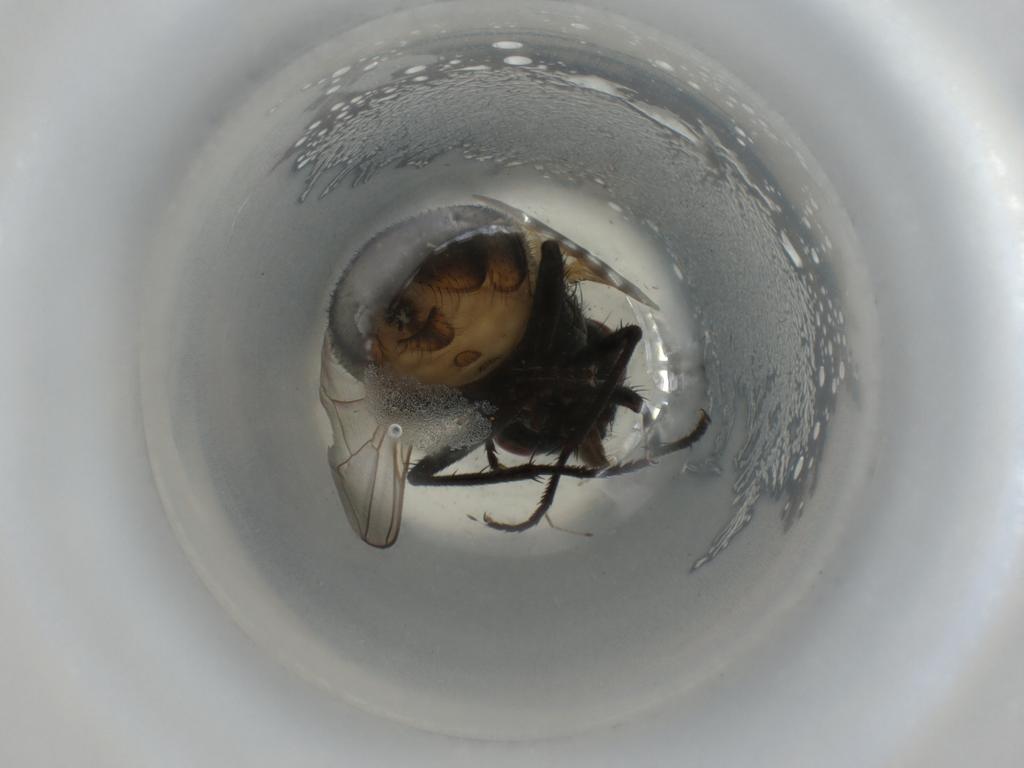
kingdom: Animalia
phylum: Arthropoda
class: Insecta
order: Diptera
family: Muscidae
